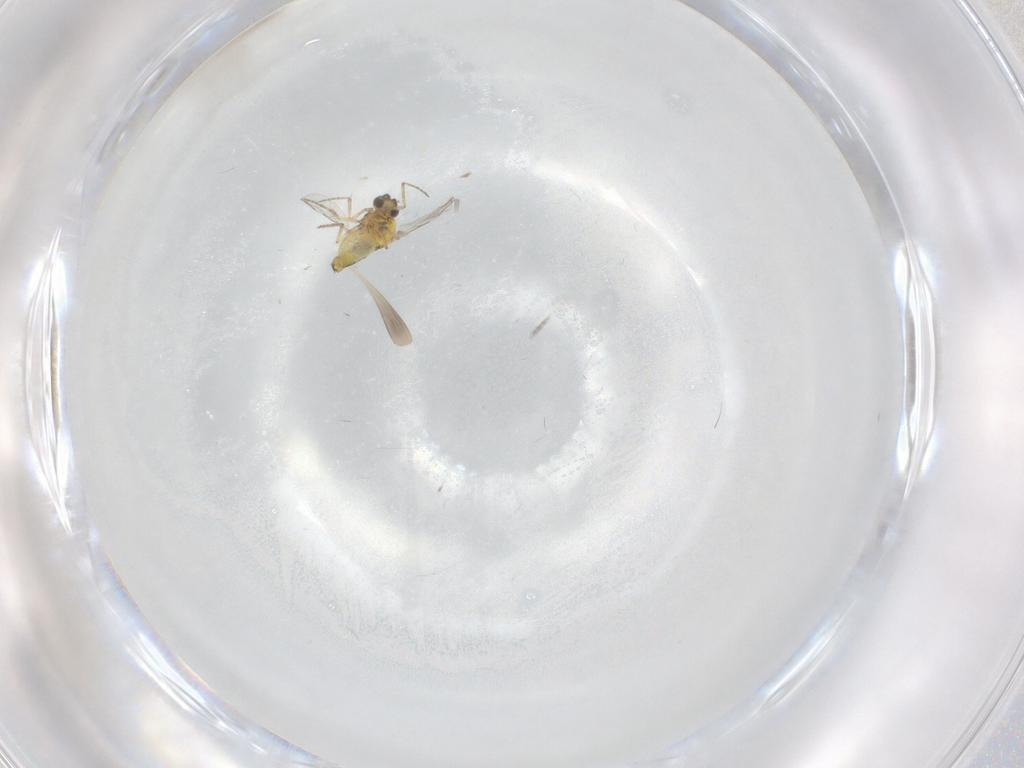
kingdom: Animalia
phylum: Arthropoda
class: Insecta
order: Diptera
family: Ceratopogonidae
